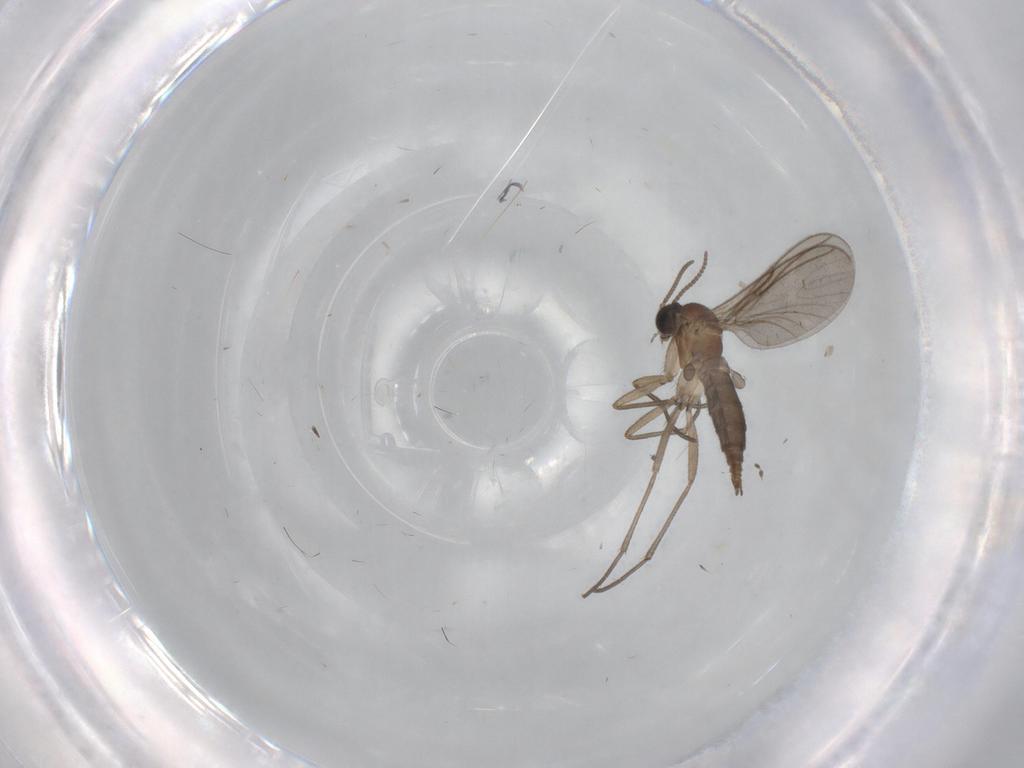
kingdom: Animalia
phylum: Arthropoda
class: Insecta
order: Diptera
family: Sciaridae
